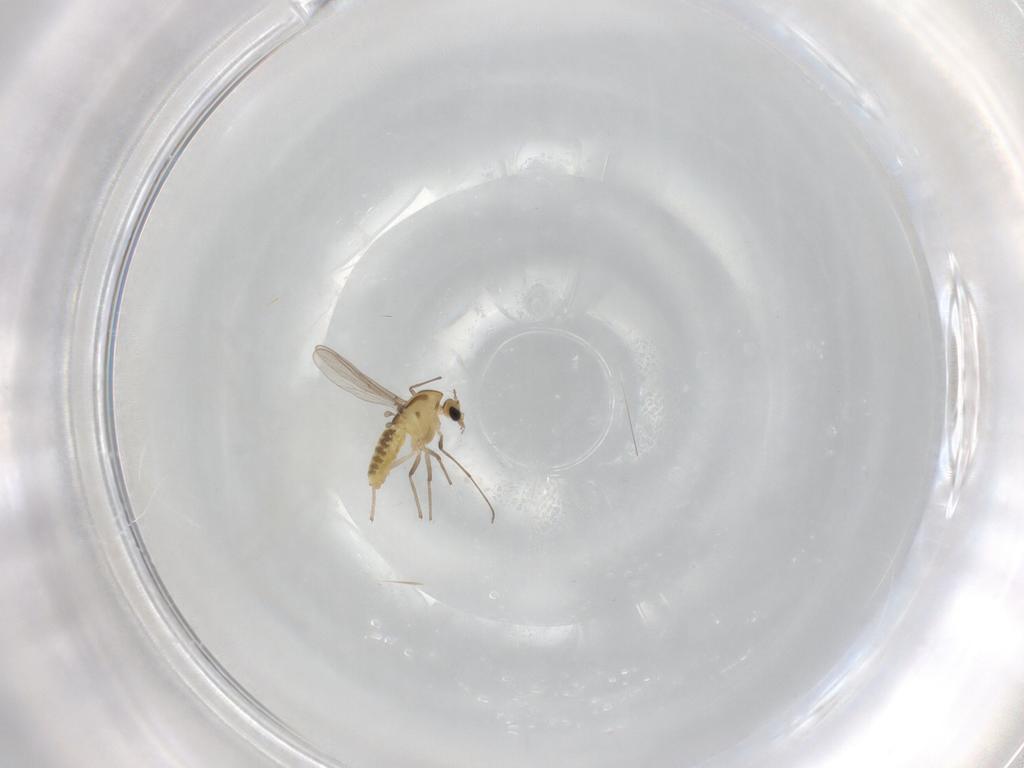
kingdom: Animalia
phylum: Arthropoda
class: Insecta
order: Diptera
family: Chironomidae
